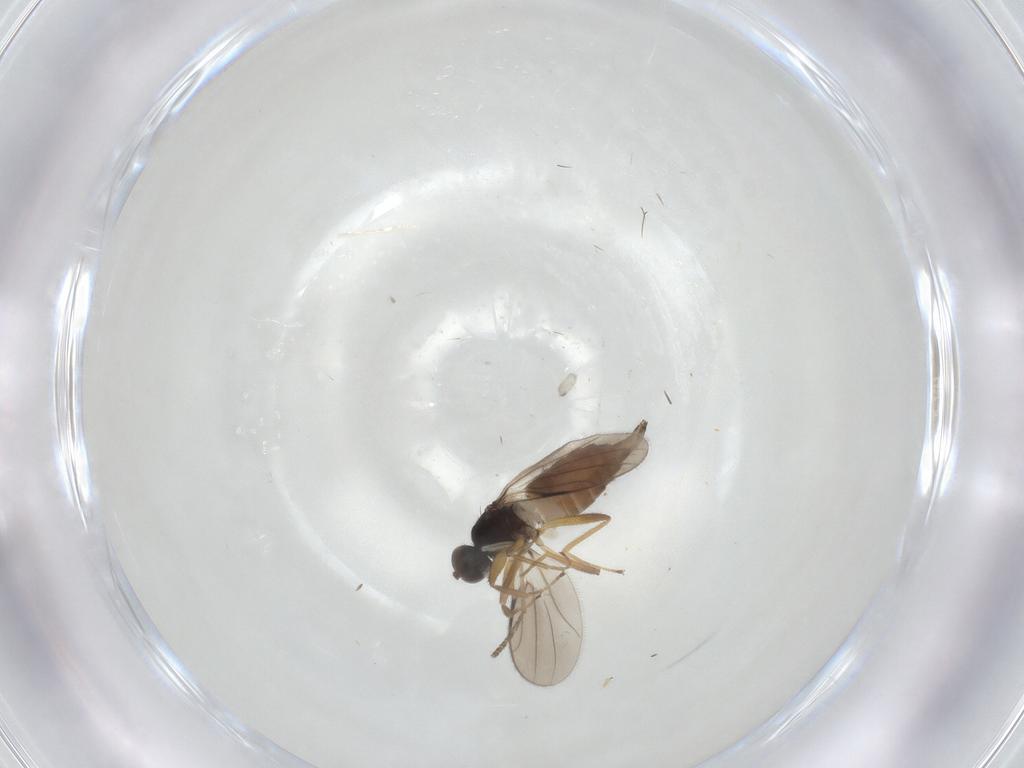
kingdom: Animalia
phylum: Arthropoda
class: Insecta
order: Diptera
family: Hybotidae
